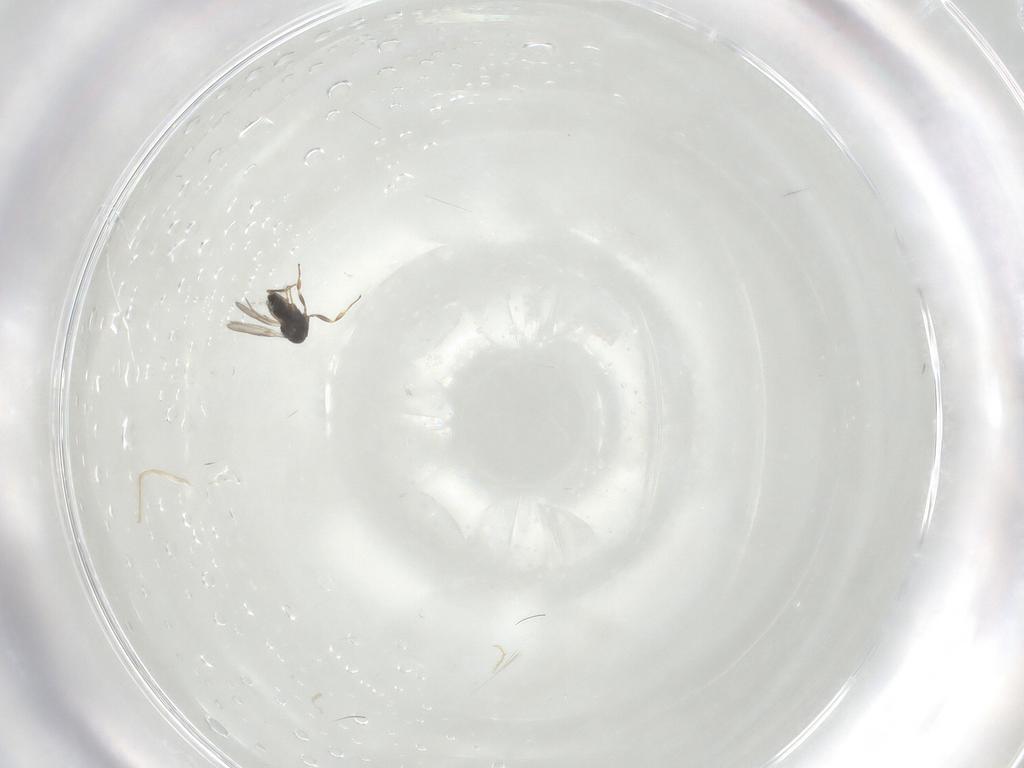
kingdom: Animalia
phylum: Arthropoda
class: Insecta
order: Hymenoptera
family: Scelionidae
